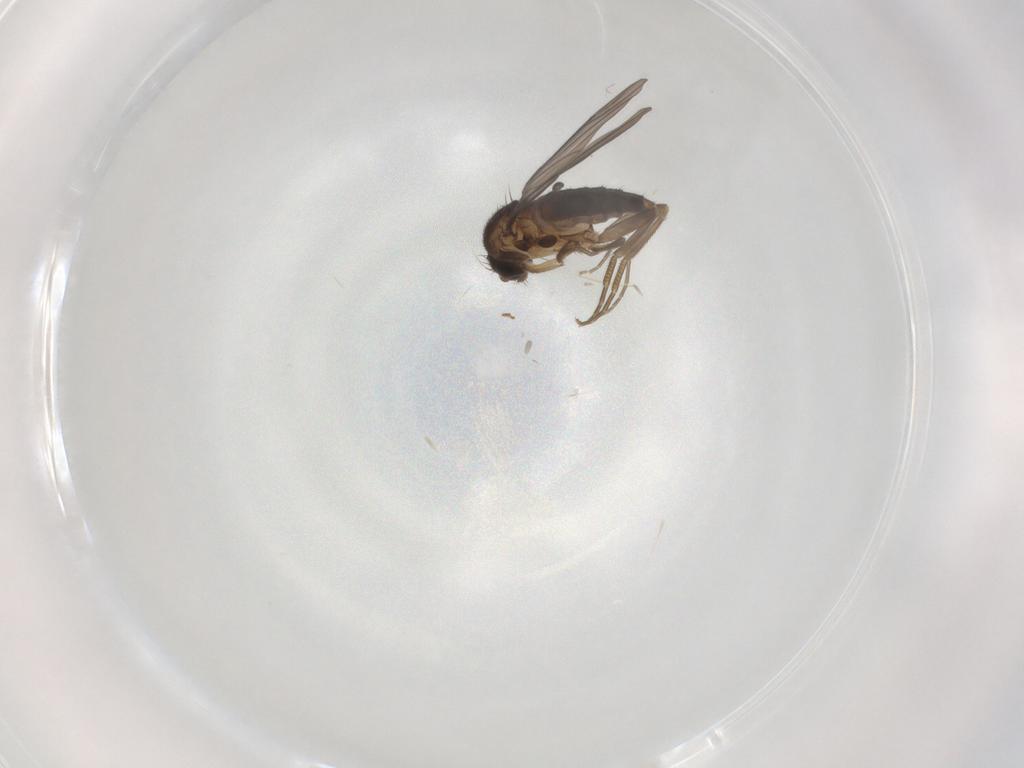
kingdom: Animalia
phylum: Arthropoda
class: Insecta
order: Diptera
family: Phoridae
